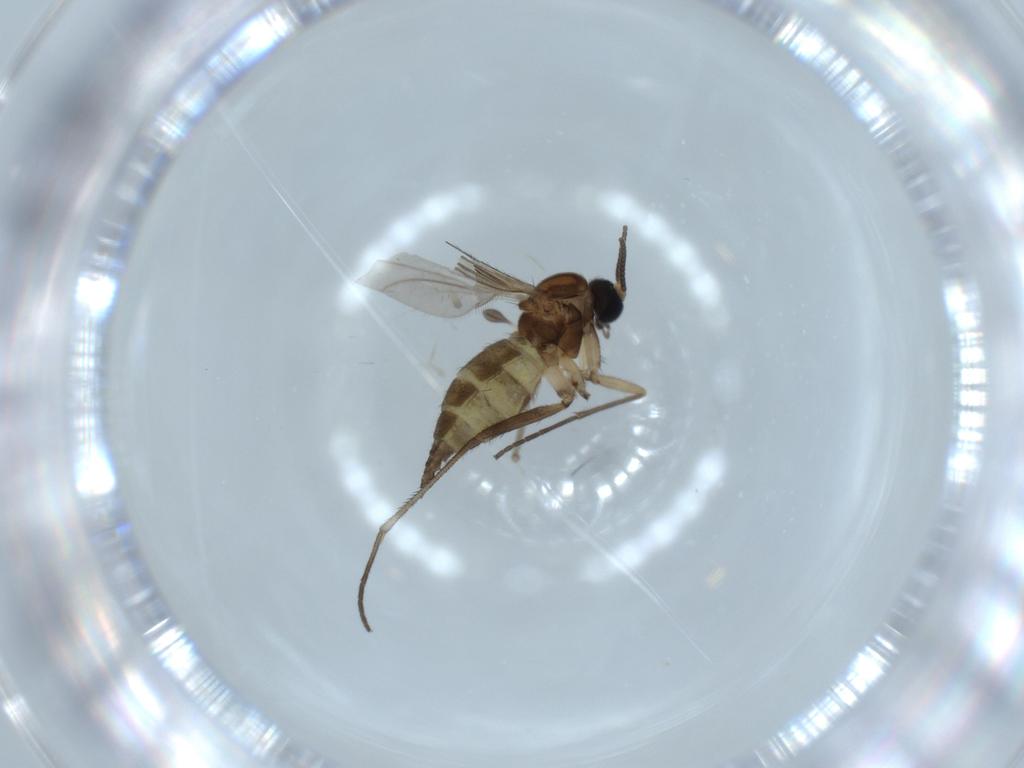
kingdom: Animalia
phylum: Arthropoda
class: Insecta
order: Diptera
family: Sciaridae
